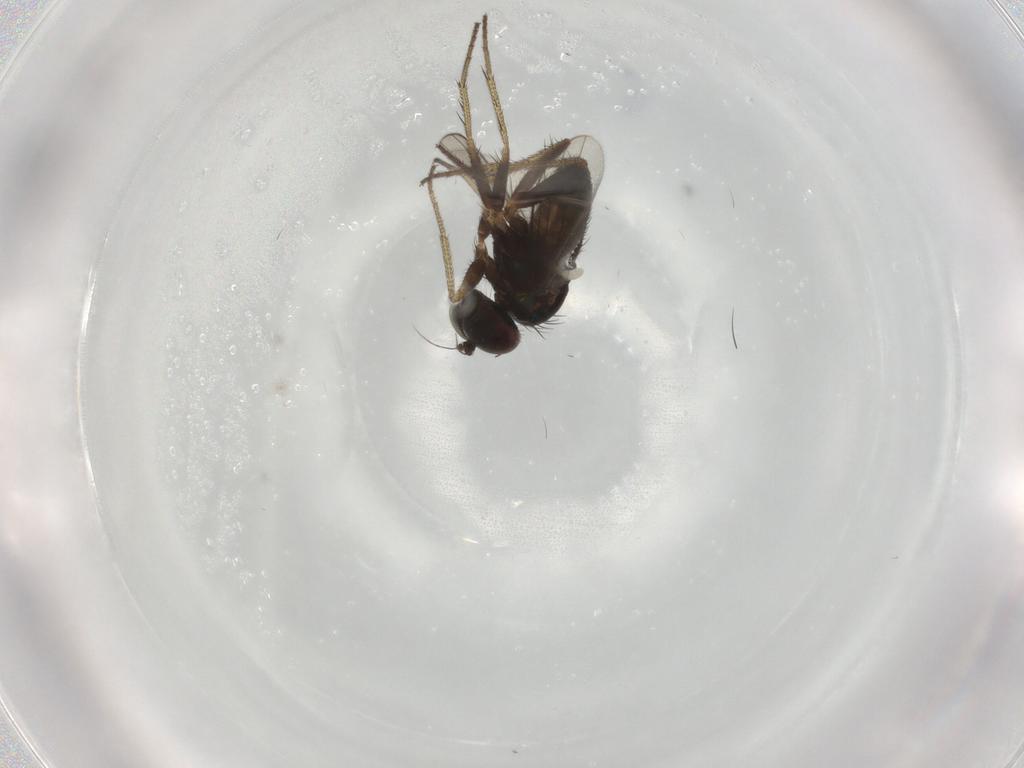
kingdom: Animalia
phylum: Arthropoda
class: Insecta
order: Diptera
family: Dolichopodidae
